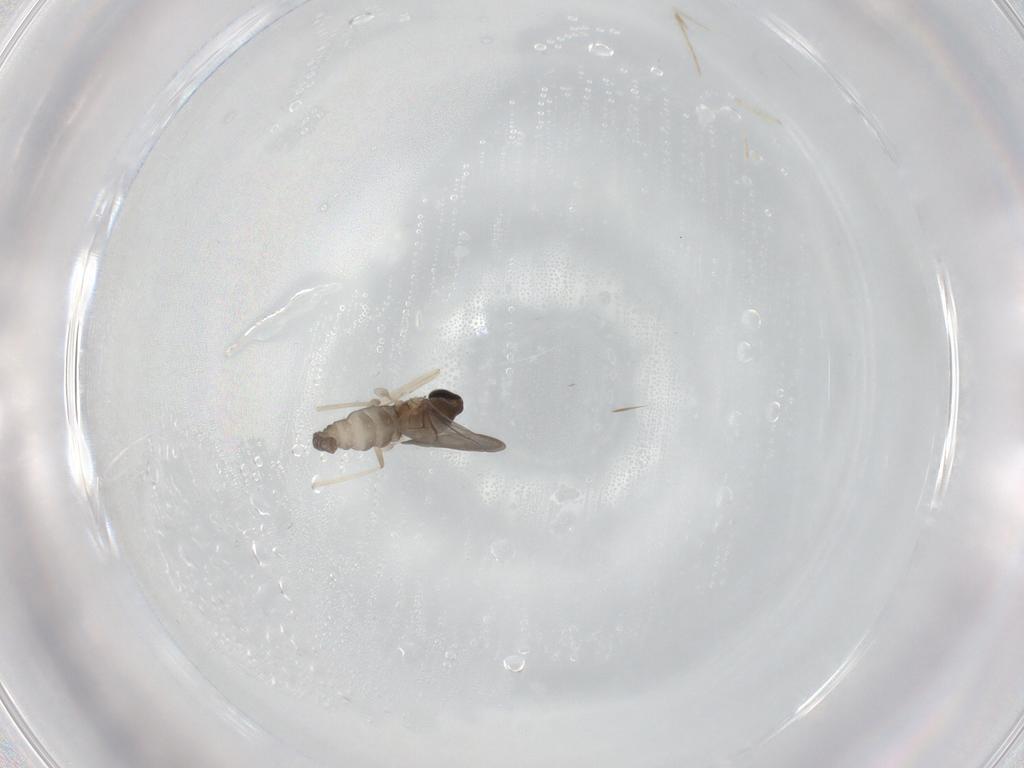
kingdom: Animalia
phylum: Arthropoda
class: Insecta
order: Diptera
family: Cecidomyiidae
